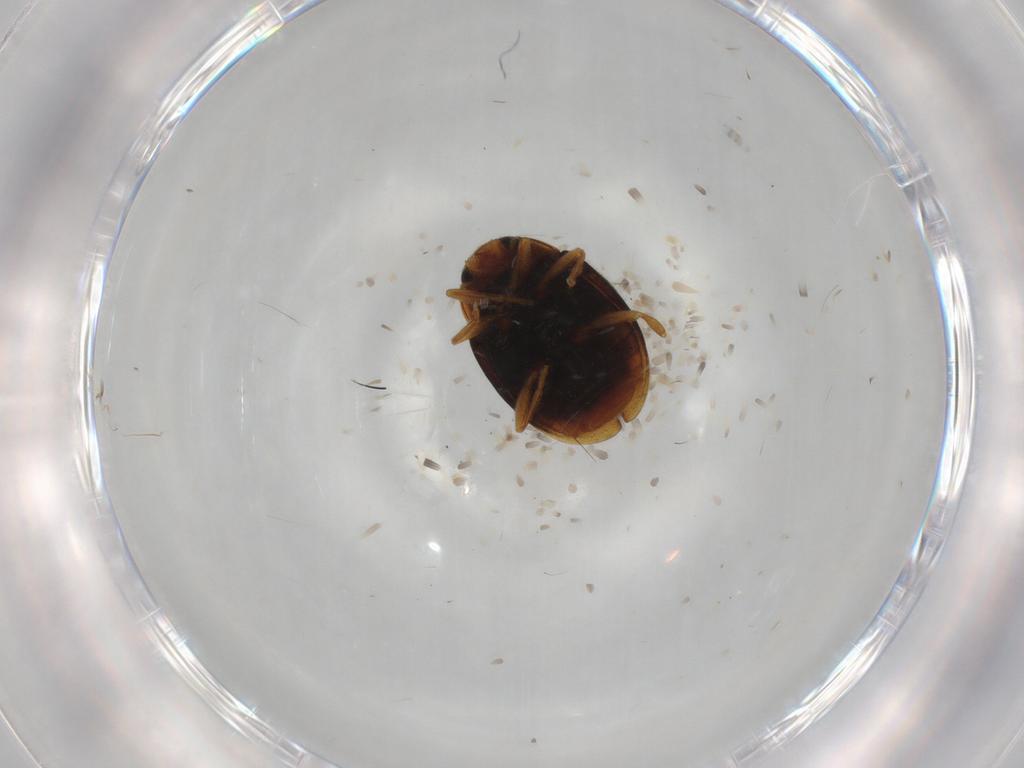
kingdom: Animalia
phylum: Arthropoda
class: Insecta
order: Coleoptera
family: Coccinellidae
